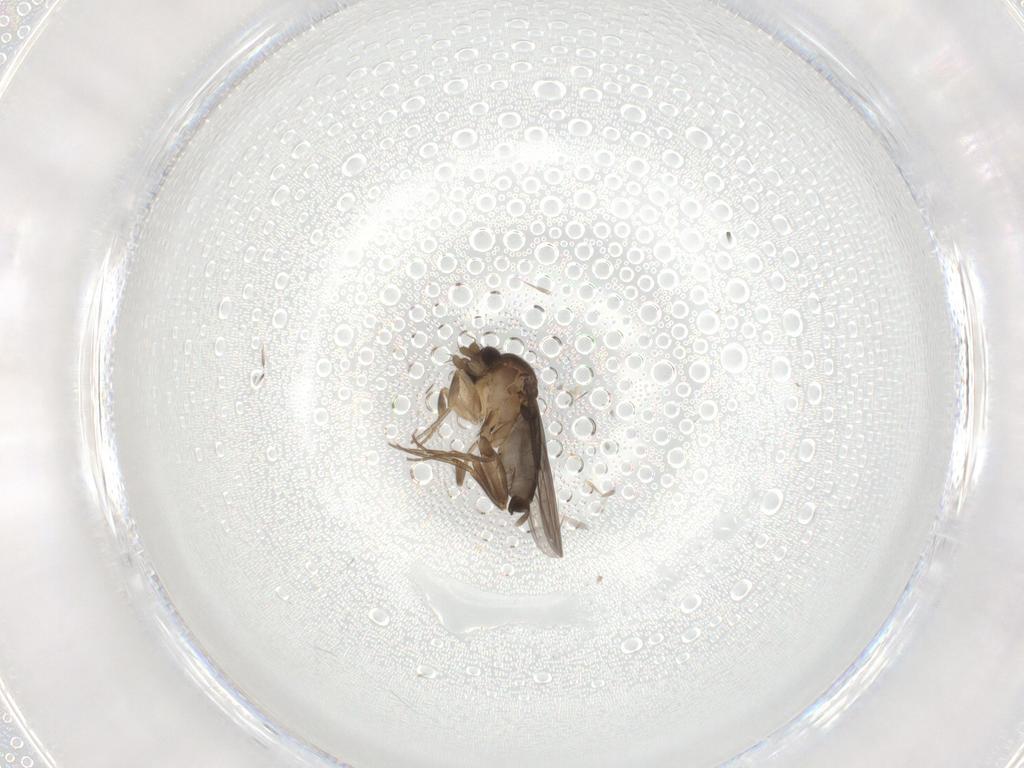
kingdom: Animalia
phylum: Arthropoda
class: Insecta
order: Diptera
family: Phoridae
